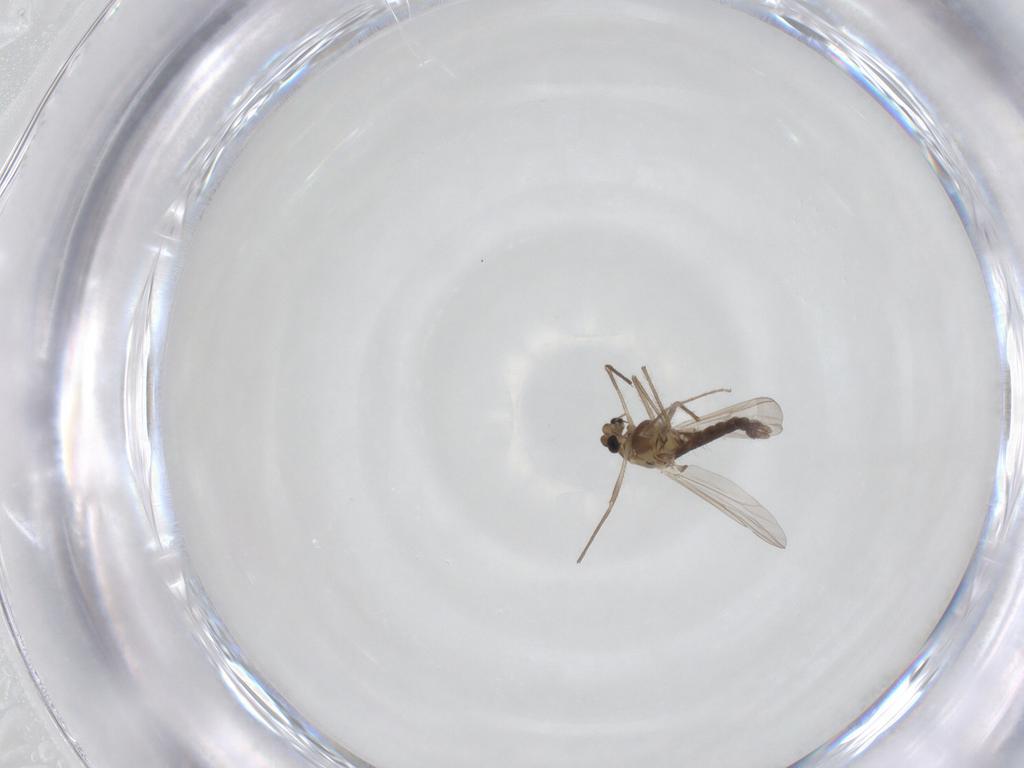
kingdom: Animalia
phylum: Arthropoda
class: Insecta
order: Diptera
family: Chironomidae
